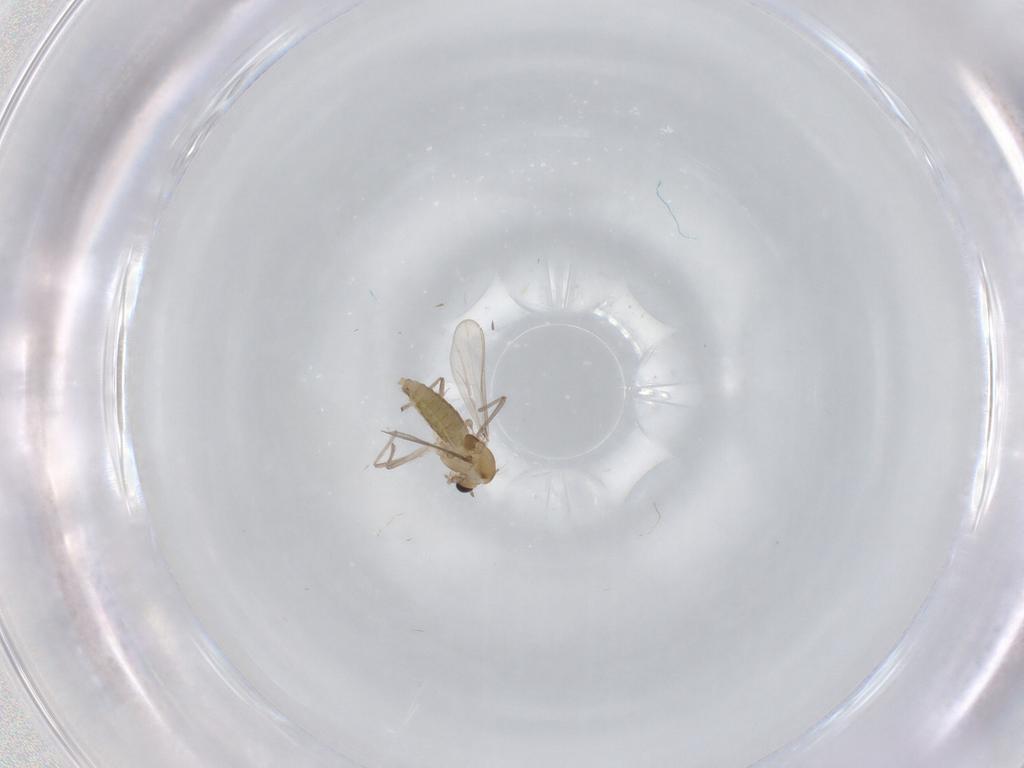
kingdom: Animalia
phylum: Arthropoda
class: Insecta
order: Diptera
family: Chironomidae
